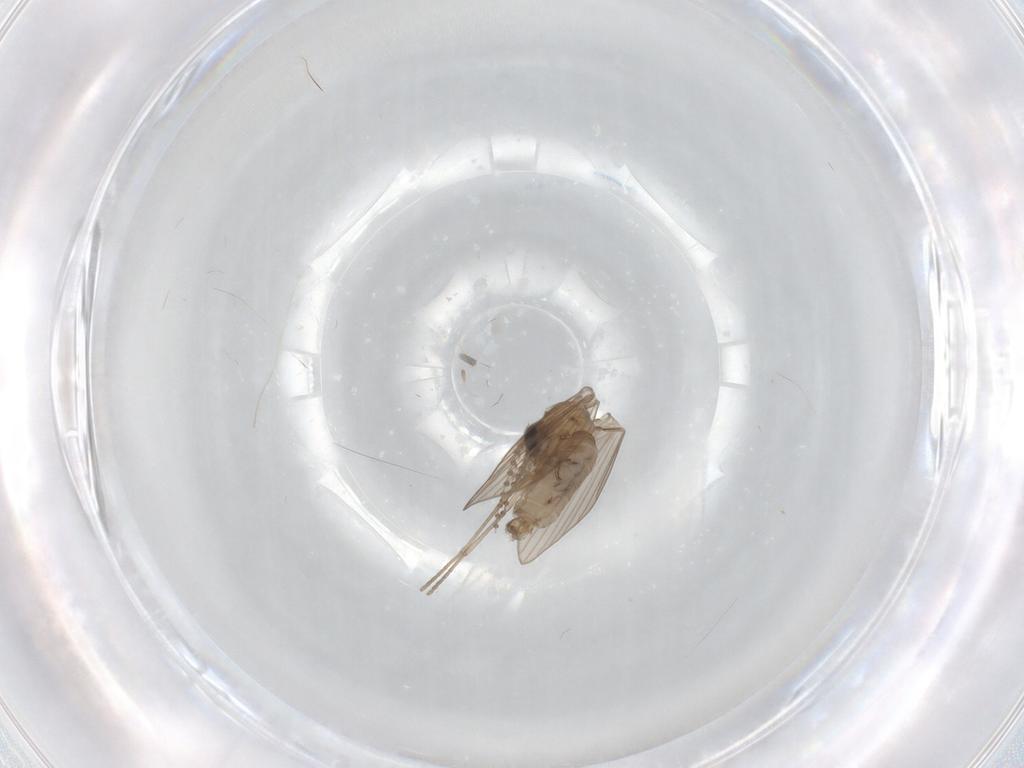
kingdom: Animalia
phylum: Arthropoda
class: Insecta
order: Diptera
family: Psychodidae
